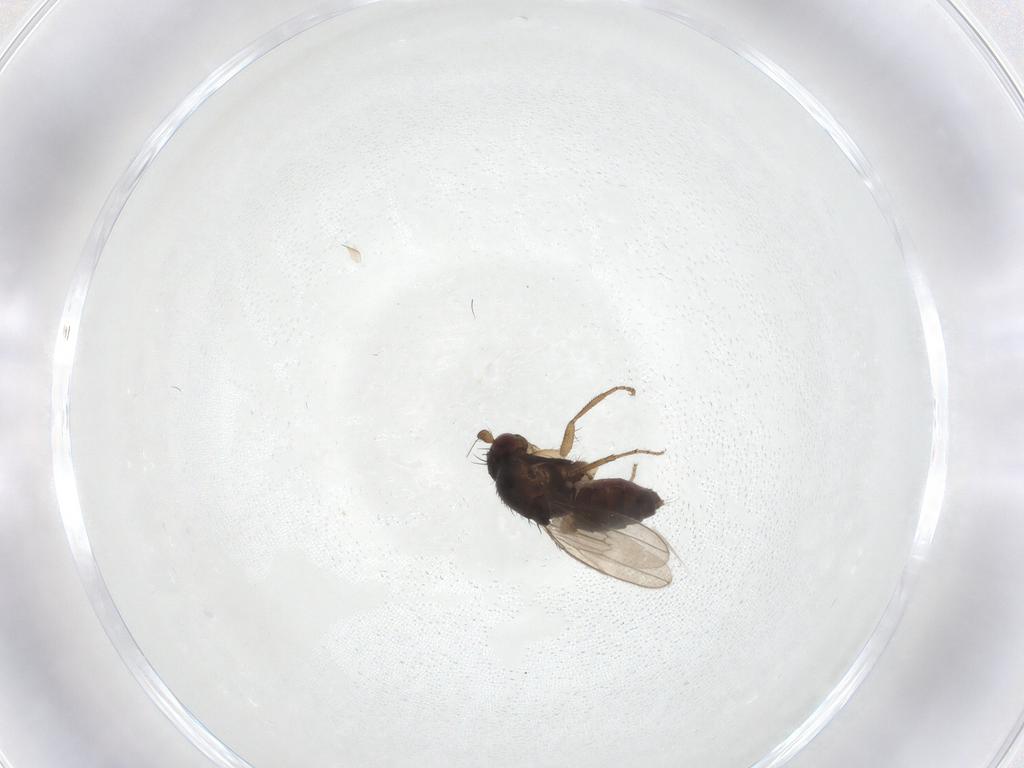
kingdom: Animalia
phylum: Arthropoda
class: Insecta
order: Diptera
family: Sphaeroceridae
